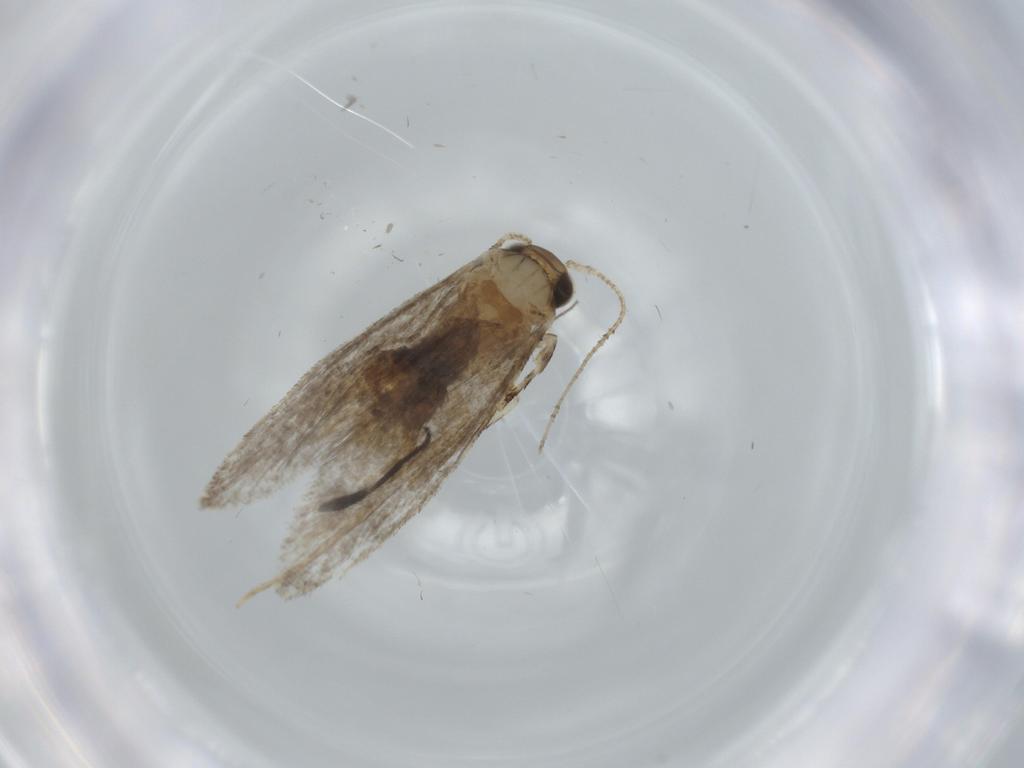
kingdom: Animalia
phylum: Arthropoda
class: Insecta
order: Lepidoptera
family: Tineidae
